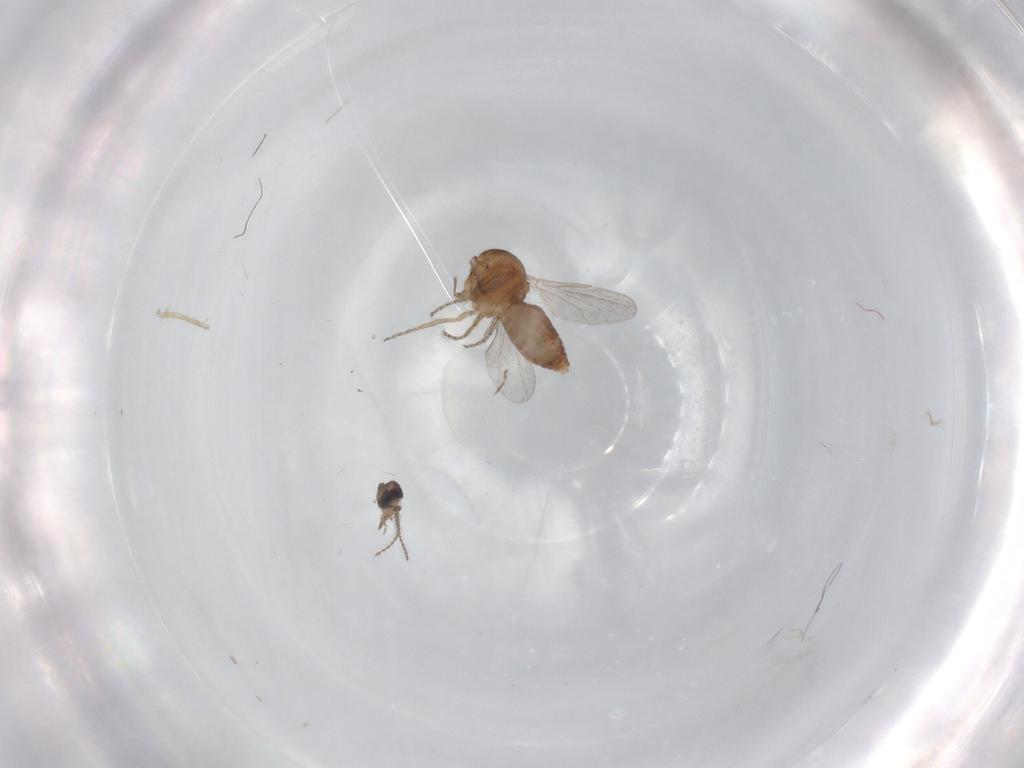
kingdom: Animalia
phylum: Arthropoda
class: Insecta
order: Diptera
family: Ceratopogonidae
